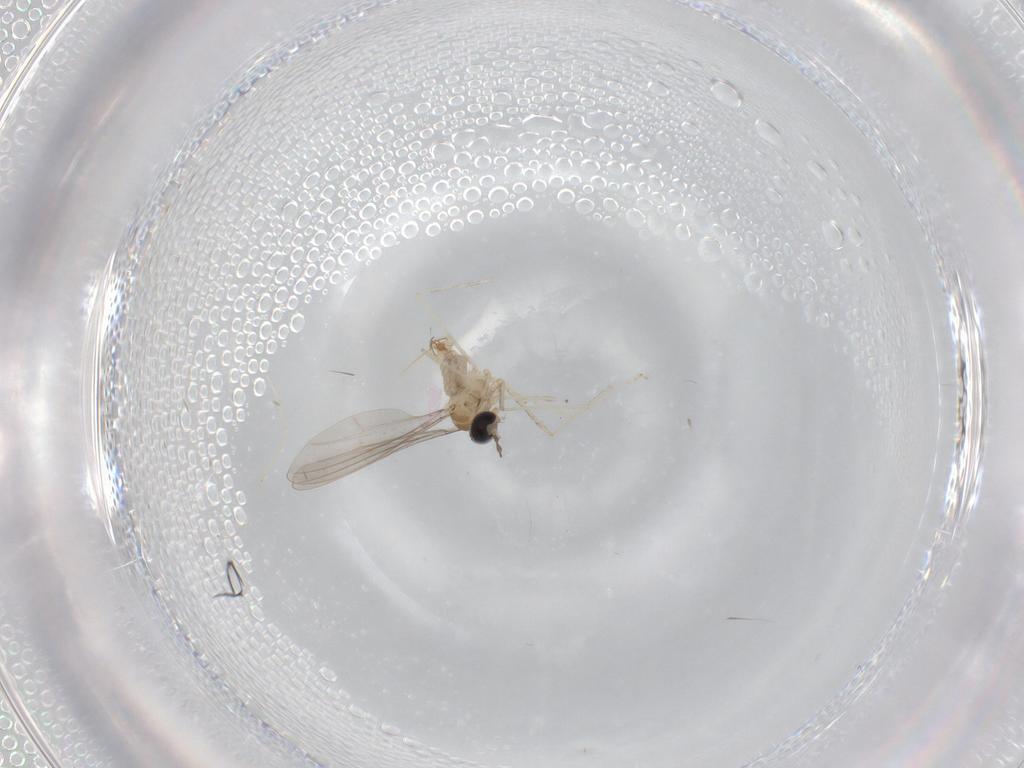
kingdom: Animalia
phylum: Arthropoda
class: Insecta
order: Diptera
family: Cecidomyiidae
